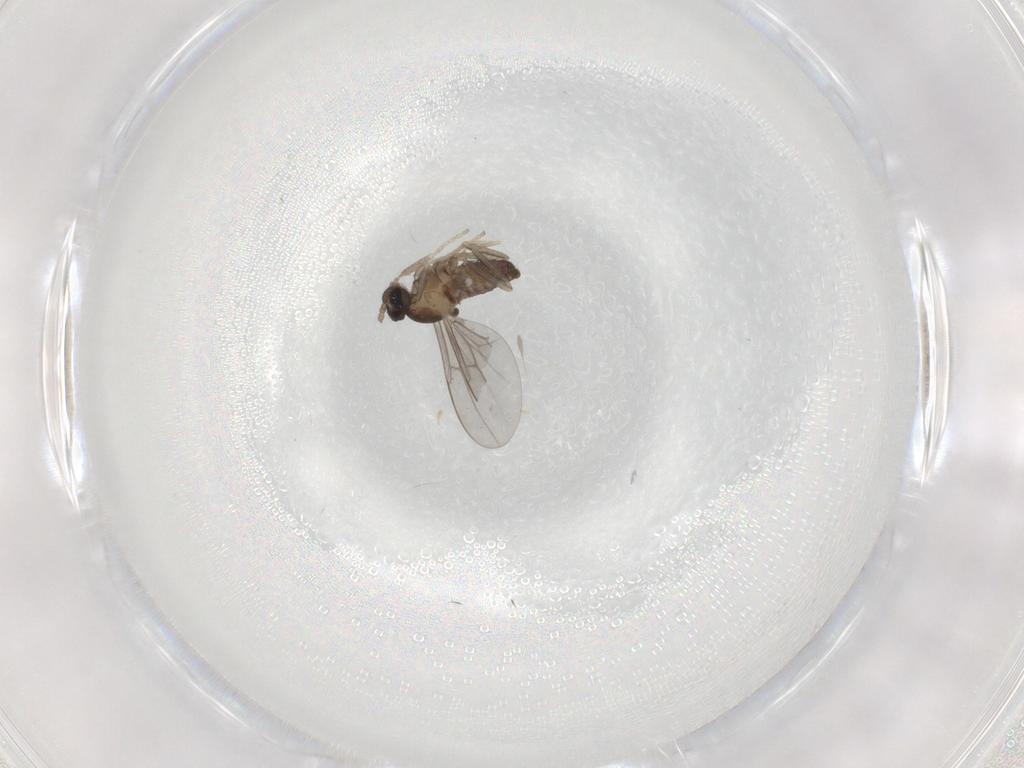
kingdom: Animalia
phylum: Arthropoda
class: Insecta
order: Diptera
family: Cecidomyiidae
